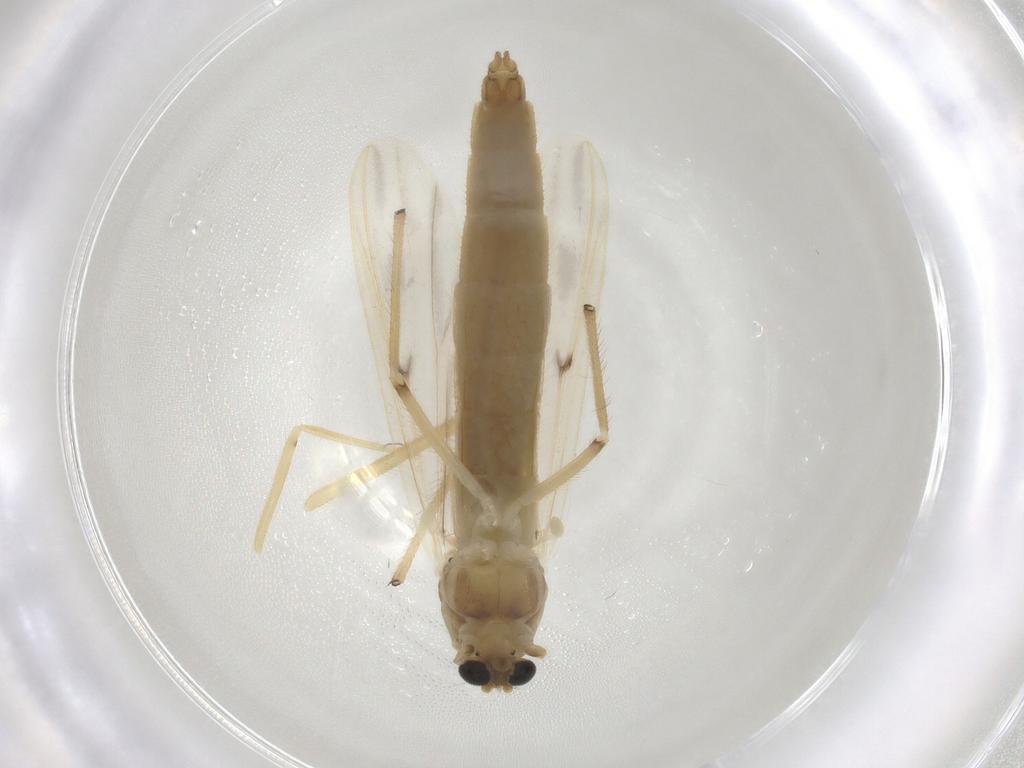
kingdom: Animalia
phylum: Arthropoda
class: Insecta
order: Diptera
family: Chironomidae
